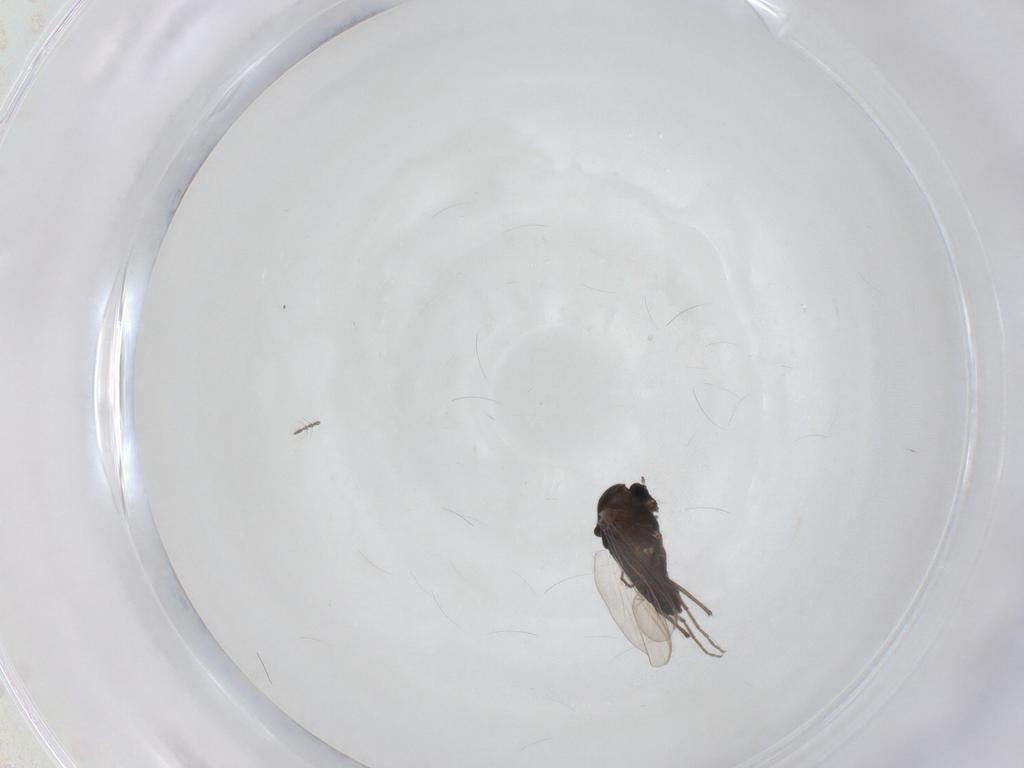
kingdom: Animalia
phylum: Arthropoda
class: Insecta
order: Diptera
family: Chironomidae
